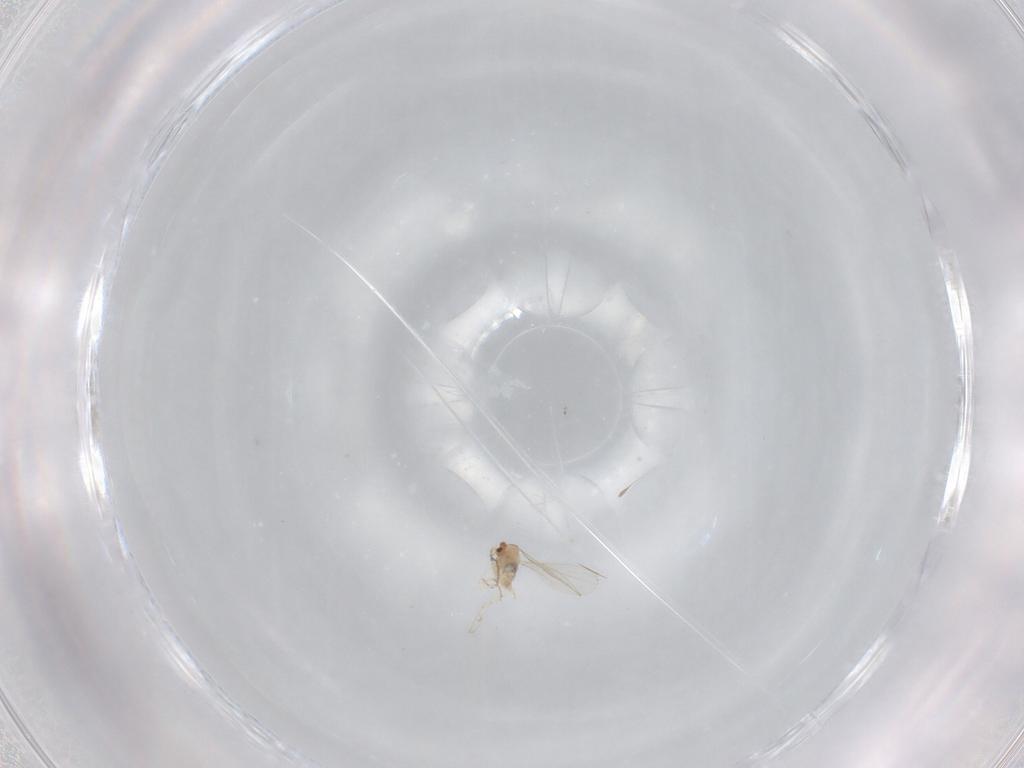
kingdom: Animalia
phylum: Arthropoda
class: Insecta
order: Diptera
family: Cecidomyiidae
